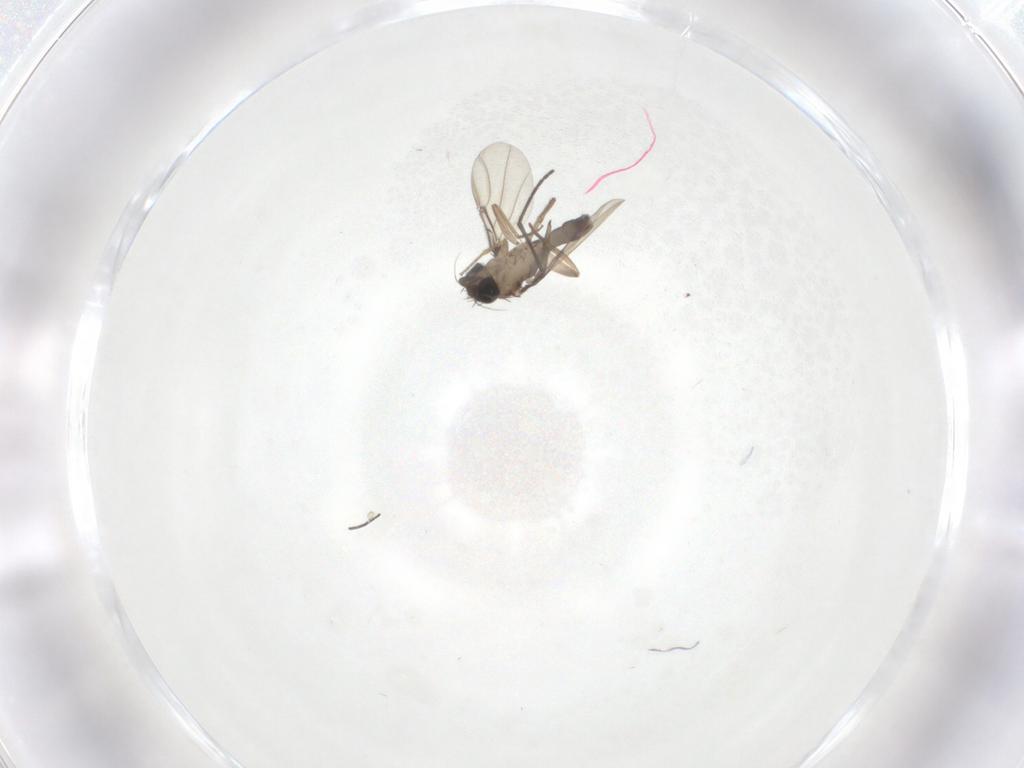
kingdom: Animalia
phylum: Arthropoda
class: Insecta
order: Diptera
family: Phoridae
